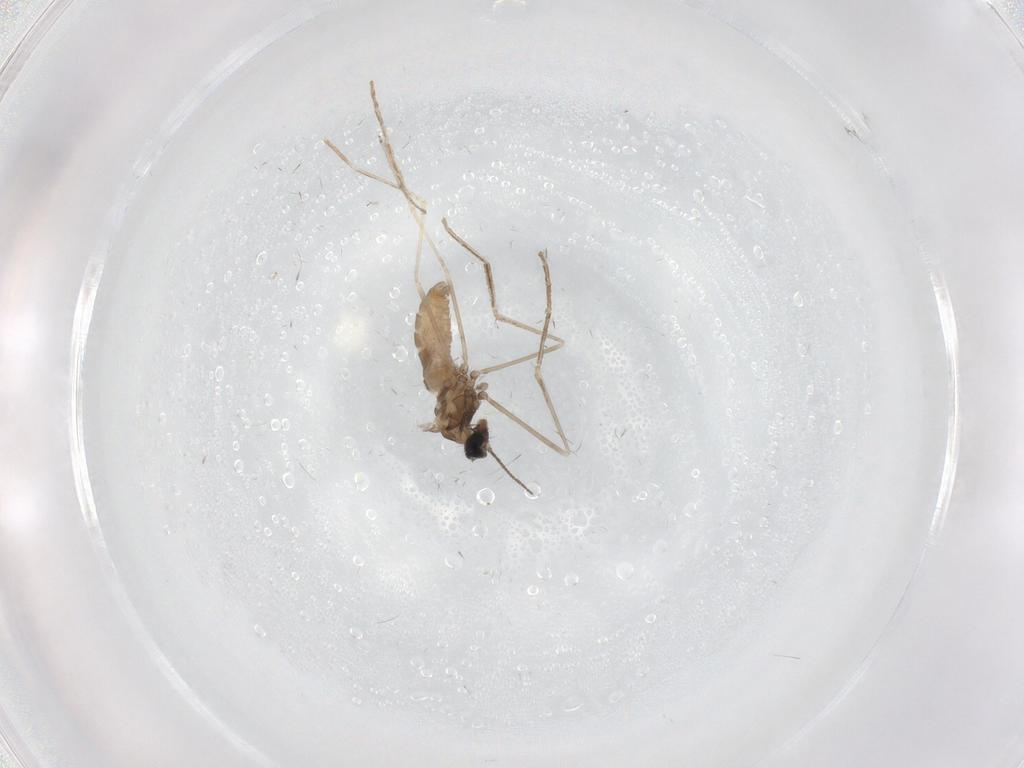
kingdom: Animalia
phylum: Arthropoda
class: Insecta
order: Diptera
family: Cecidomyiidae
